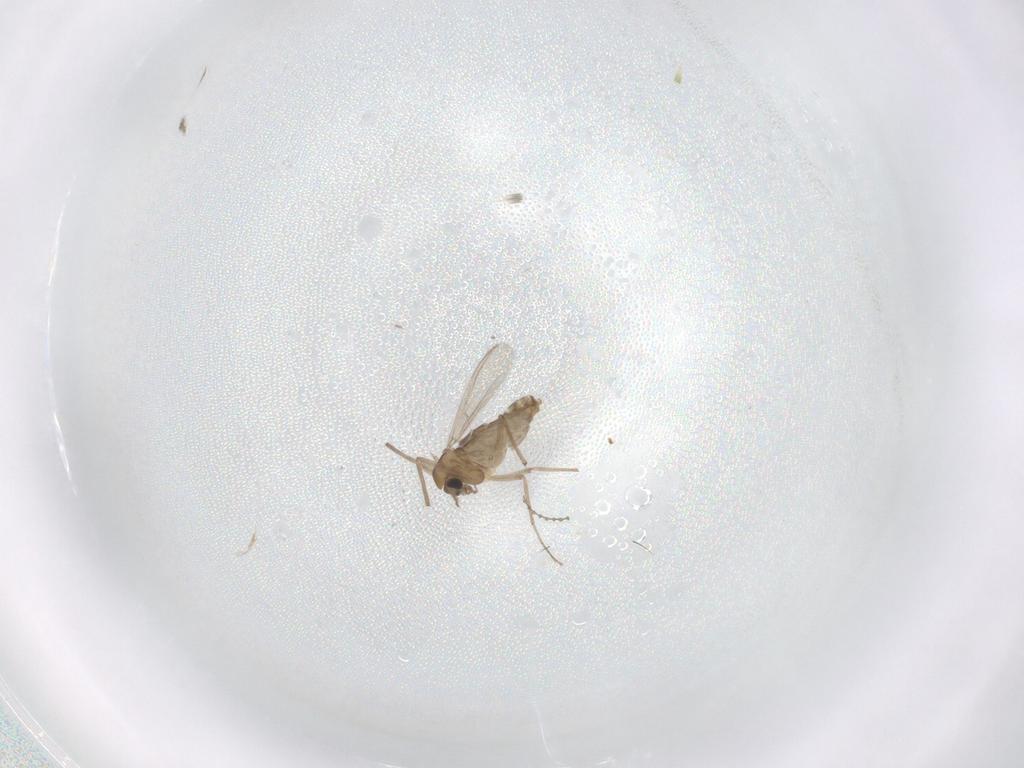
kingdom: Animalia
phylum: Arthropoda
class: Insecta
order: Diptera
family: Chironomidae
